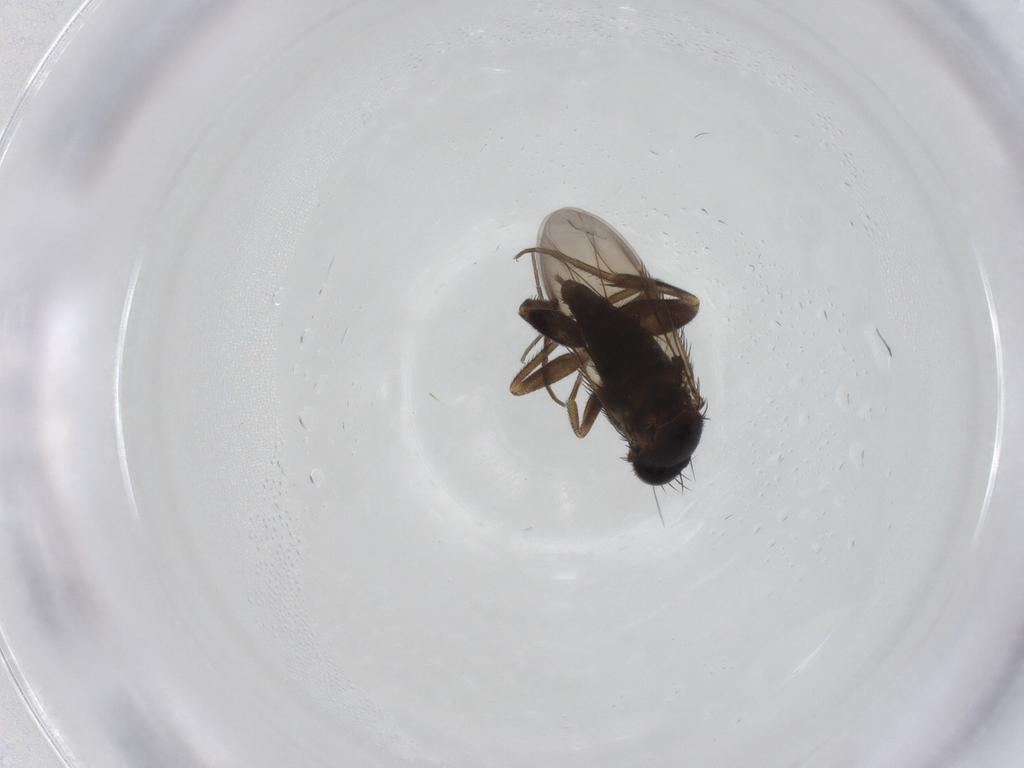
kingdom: Animalia
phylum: Arthropoda
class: Insecta
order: Diptera
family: Phoridae
